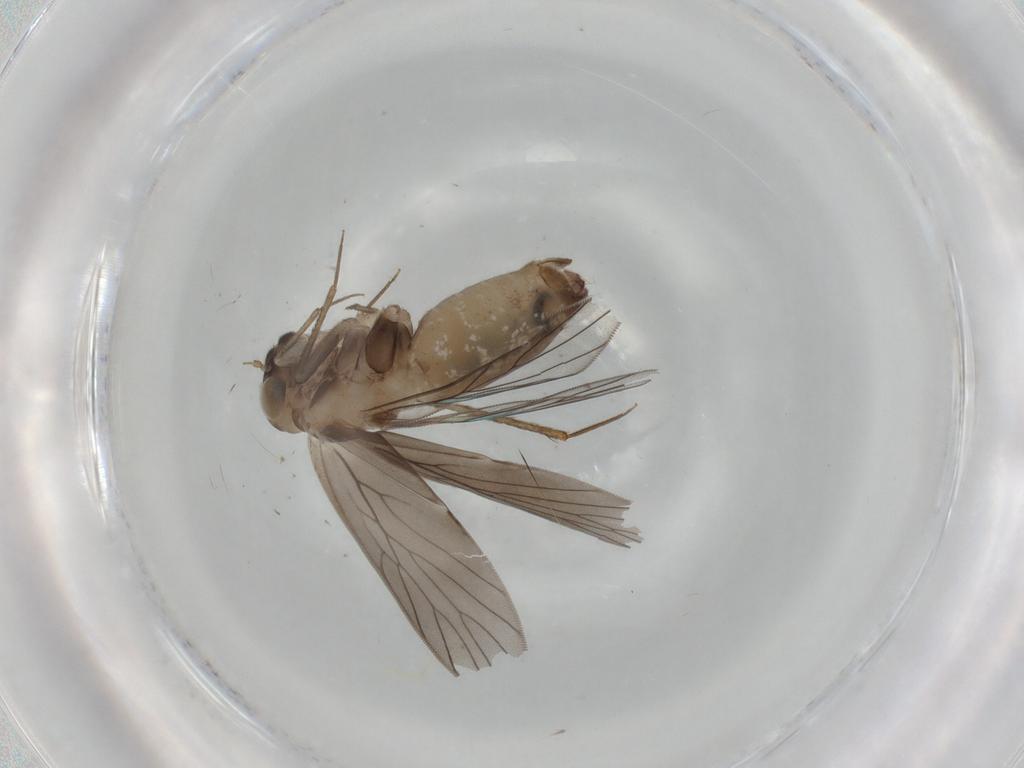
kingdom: Animalia
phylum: Arthropoda
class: Insecta
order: Psocodea
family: Lepidopsocidae
